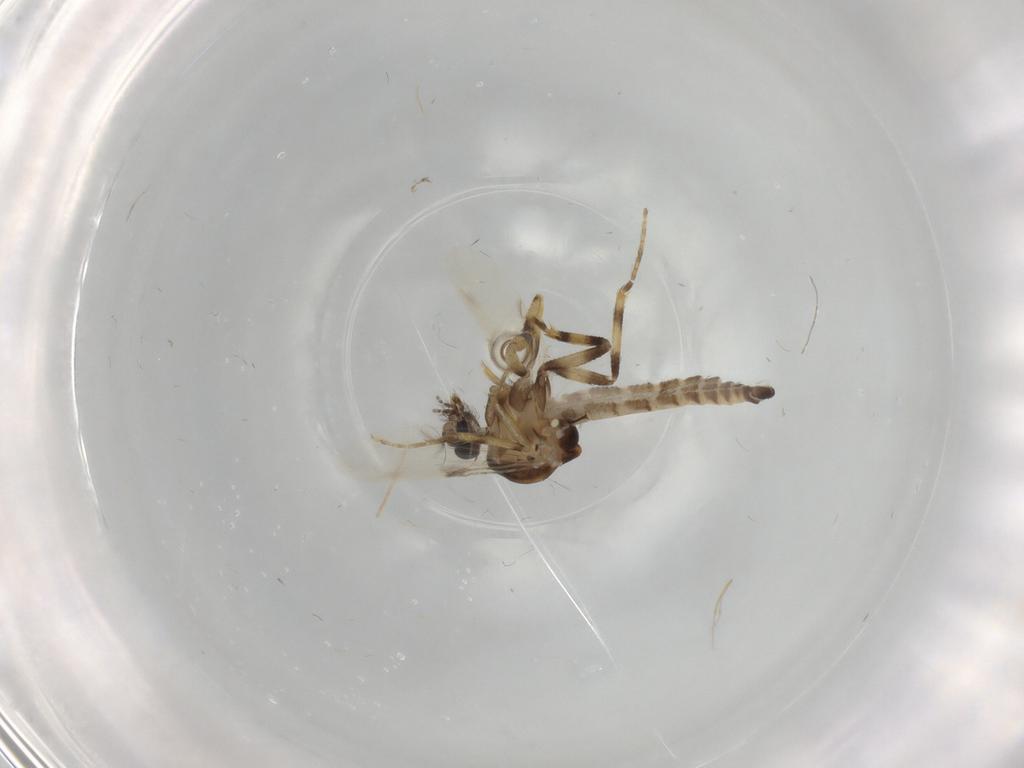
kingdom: Animalia
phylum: Arthropoda
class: Insecta
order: Diptera
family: Ceratopogonidae
